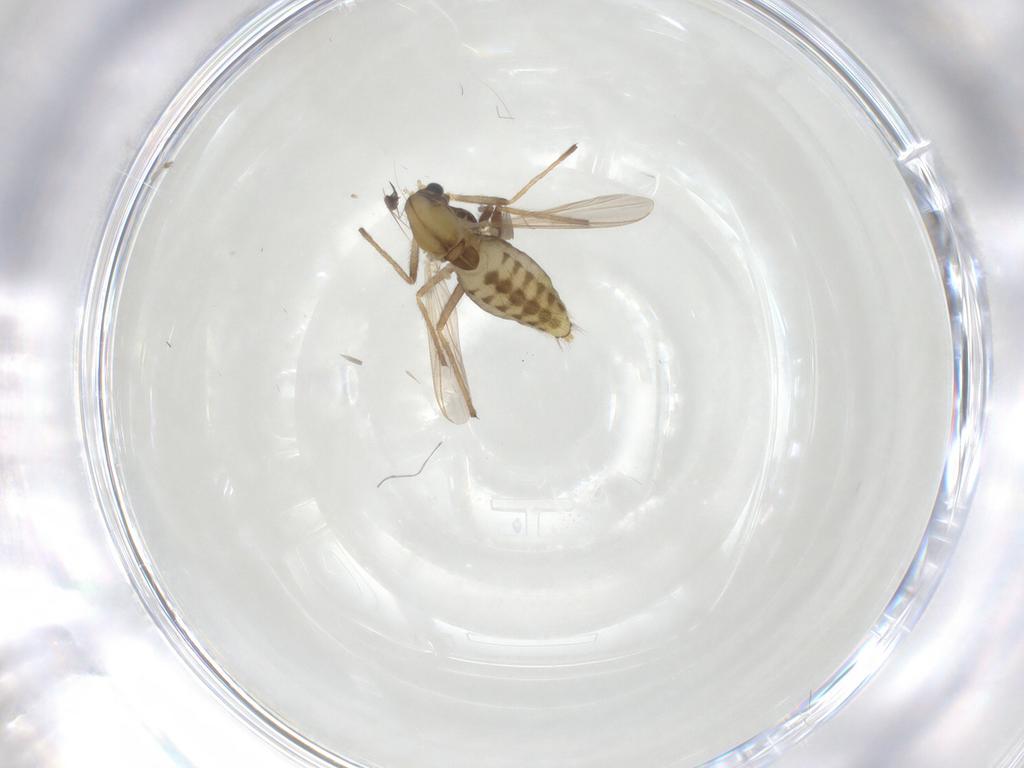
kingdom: Animalia
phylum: Arthropoda
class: Insecta
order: Diptera
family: Chironomidae
